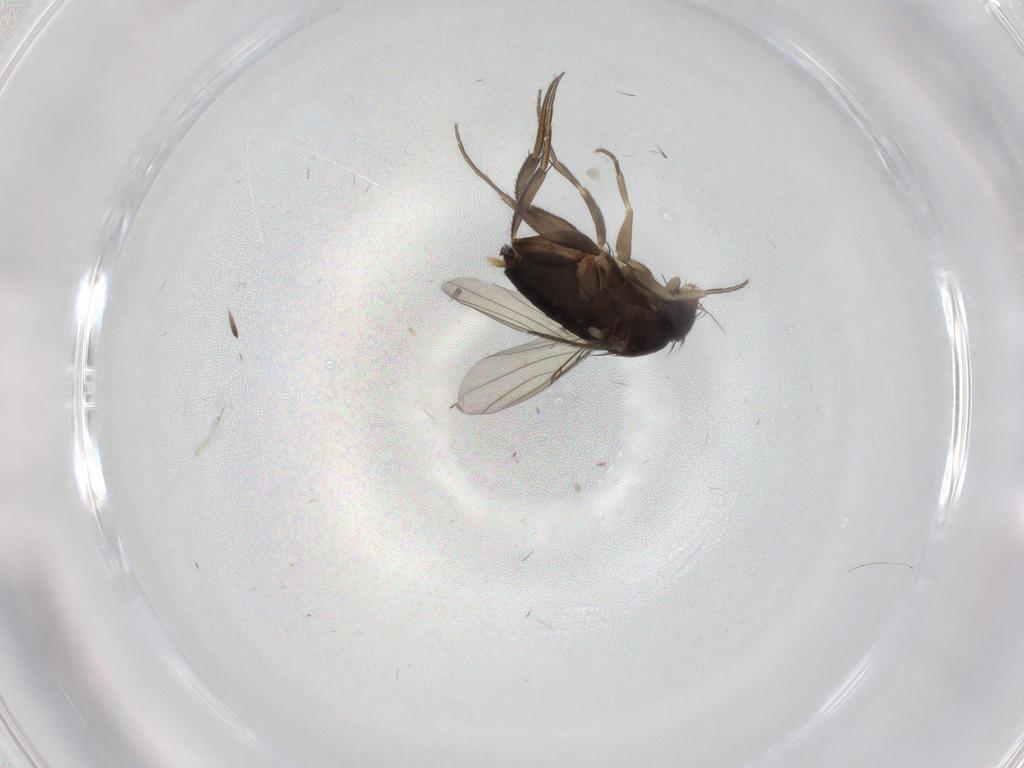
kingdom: Animalia
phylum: Arthropoda
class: Insecta
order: Diptera
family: Phoridae
